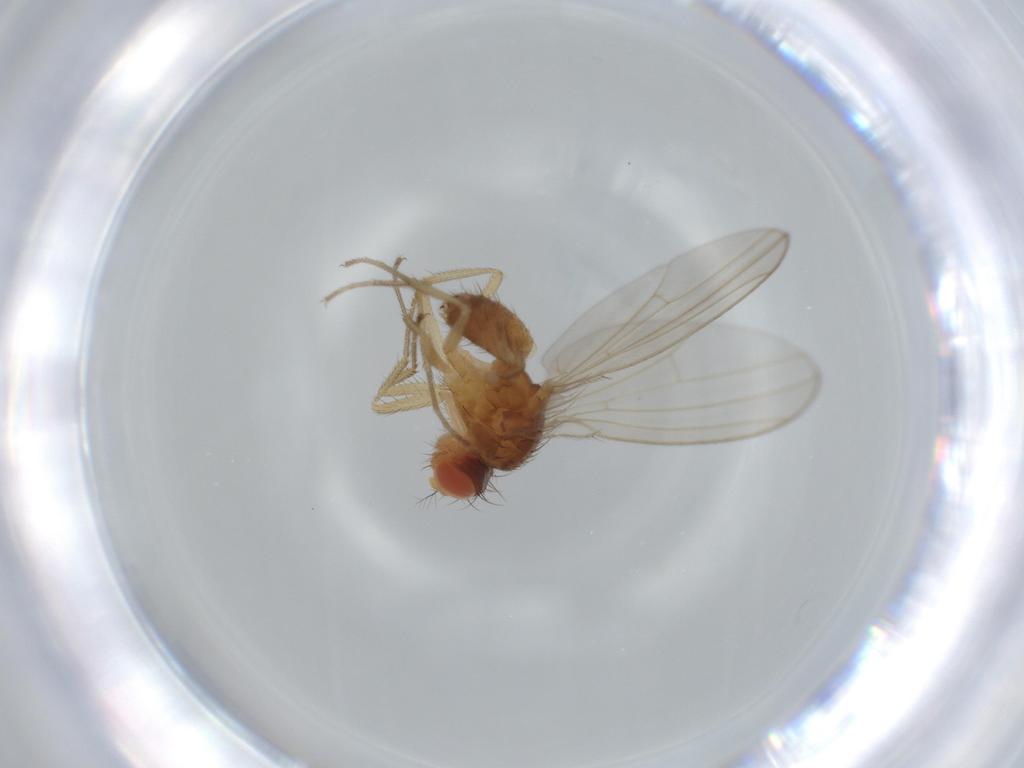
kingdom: Animalia
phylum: Arthropoda
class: Insecta
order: Diptera
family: Drosophilidae
